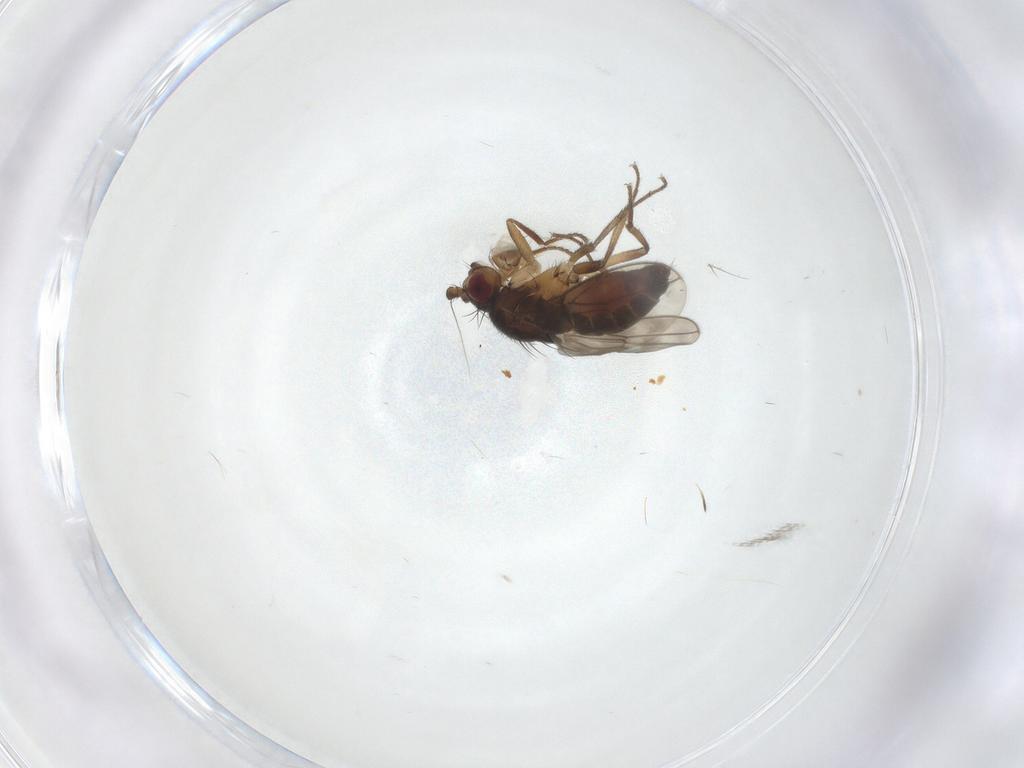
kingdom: Animalia
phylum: Arthropoda
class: Insecta
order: Diptera
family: Sphaeroceridae
